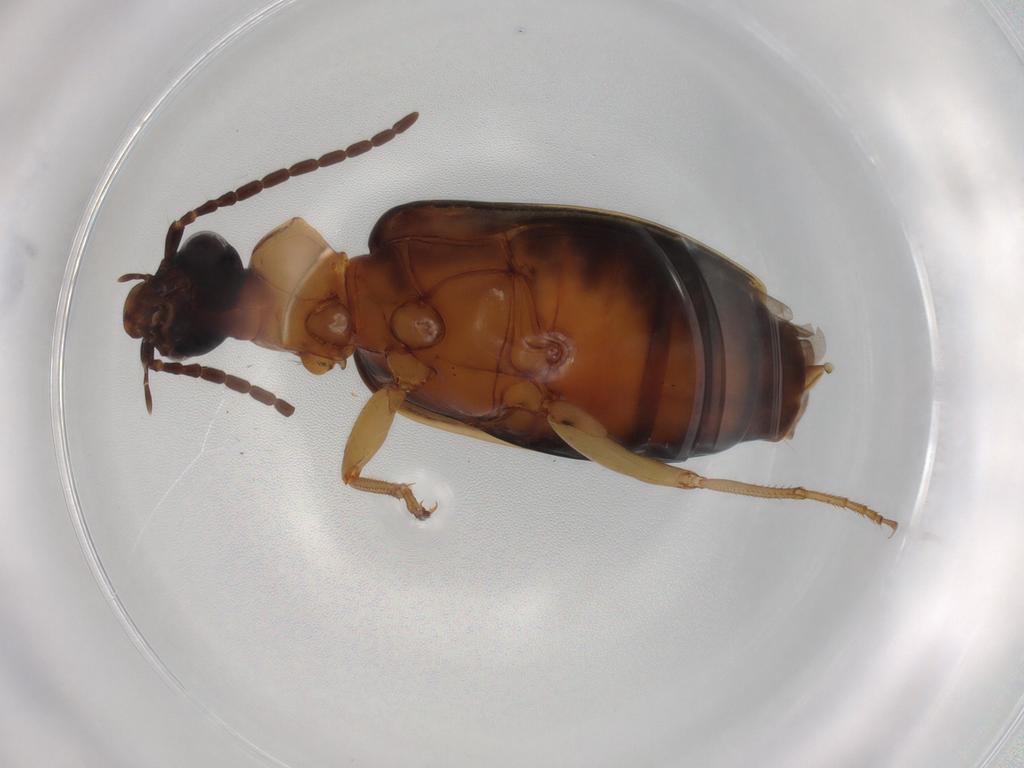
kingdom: Animalia
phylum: Arthropoda
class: Insecta
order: Coleoptera
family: Carabidae
